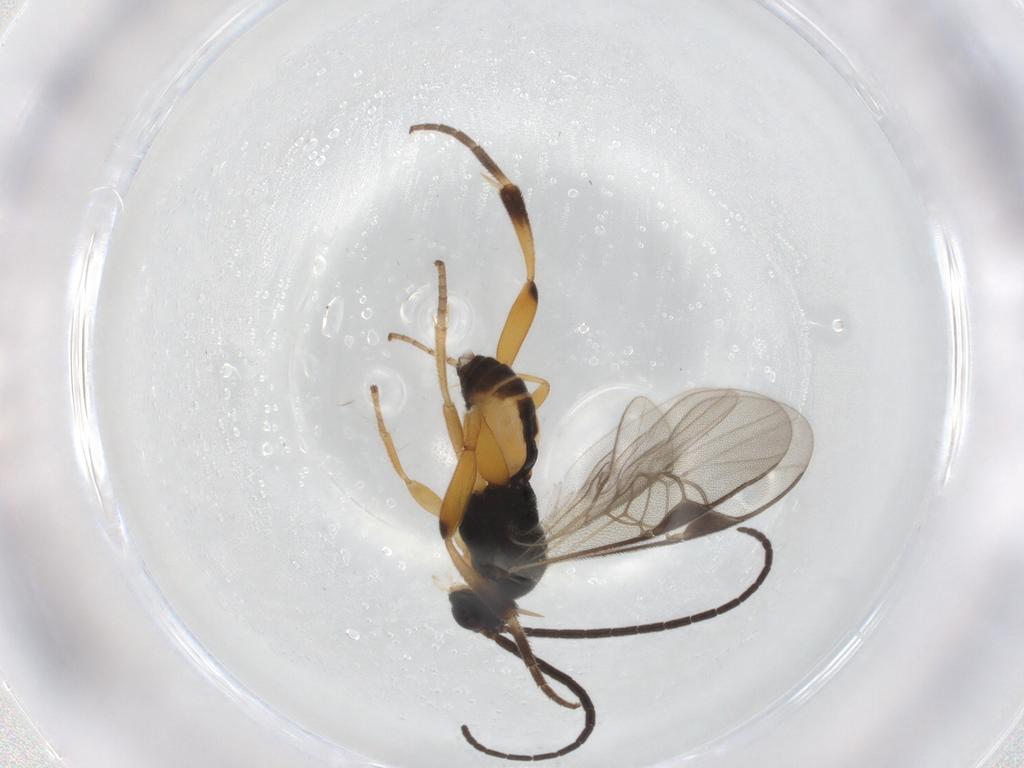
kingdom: Animalia
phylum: Arthropoda
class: Insecta
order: Hymenoptera
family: Braconidae
